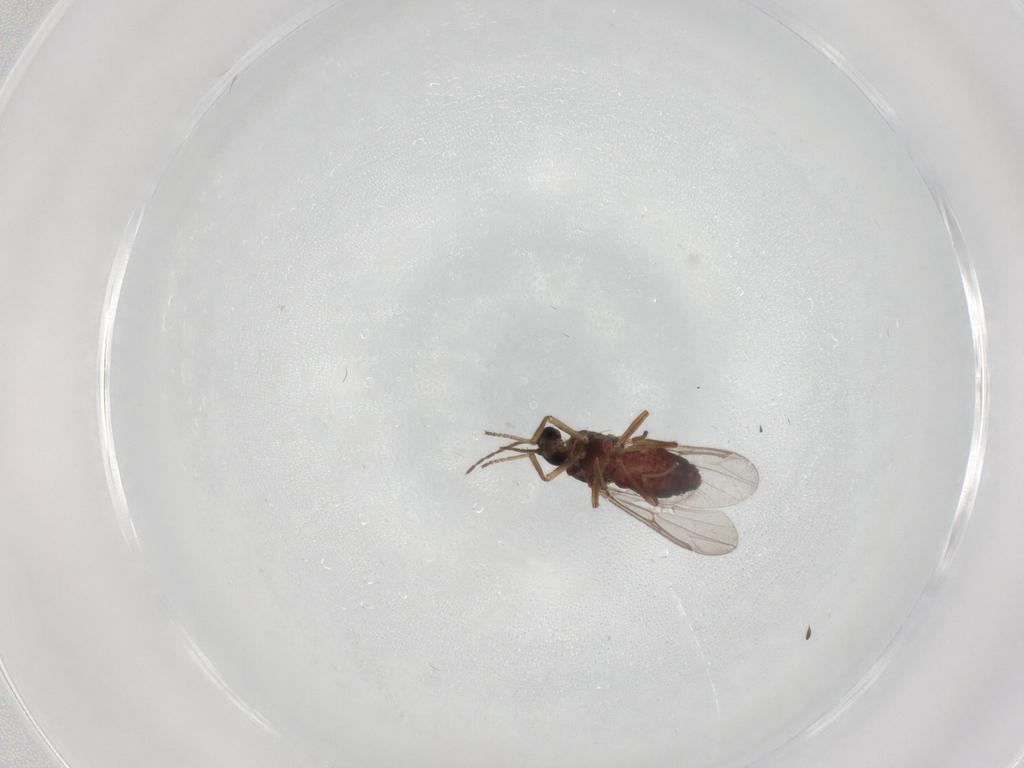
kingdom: Animalia
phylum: Arthropoda
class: Insecta
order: Diptera
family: Ceratopogonidae
